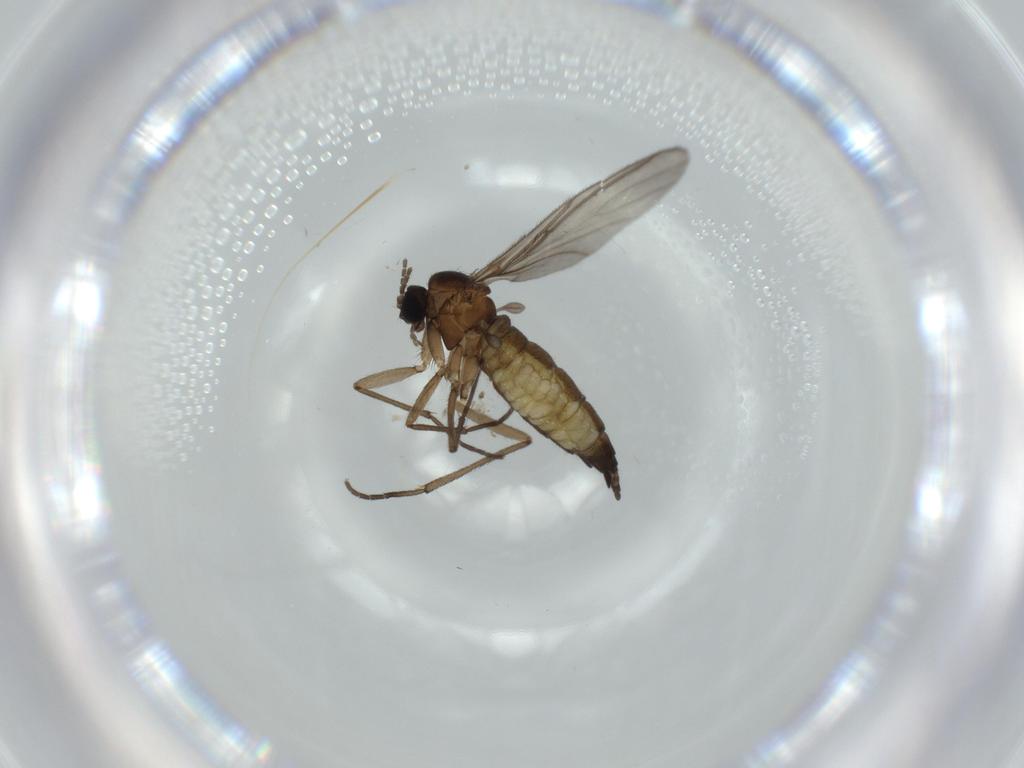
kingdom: Animalia
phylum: Arthropoda
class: Insecta
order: Diptera
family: Sciaridae
